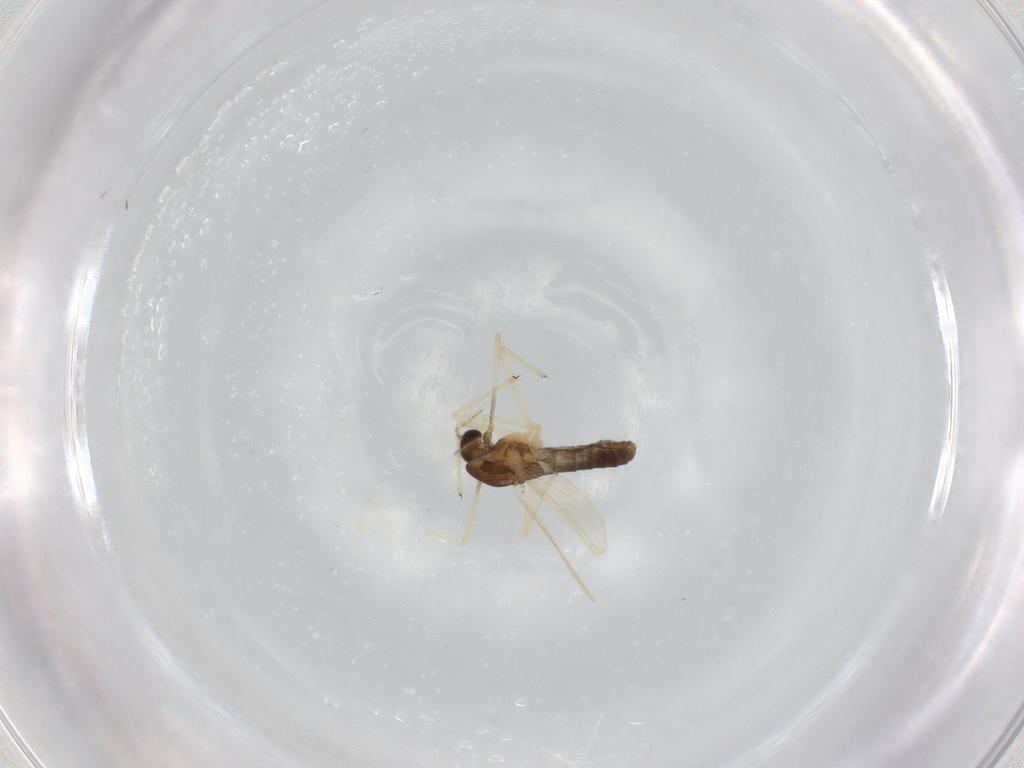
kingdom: Animalia
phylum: Arthropoda
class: Insecta
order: Diptera
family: Chironomidae
